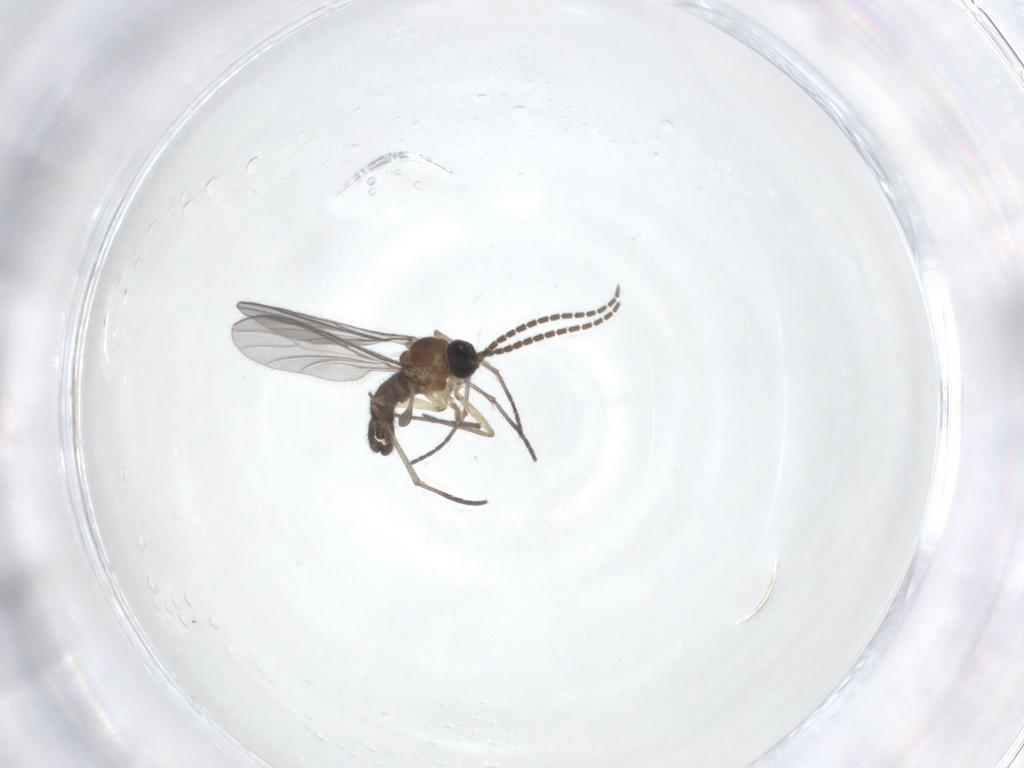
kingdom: Animalia
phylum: Arthropoda
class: Insecta
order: Diptera
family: Sciaridae
